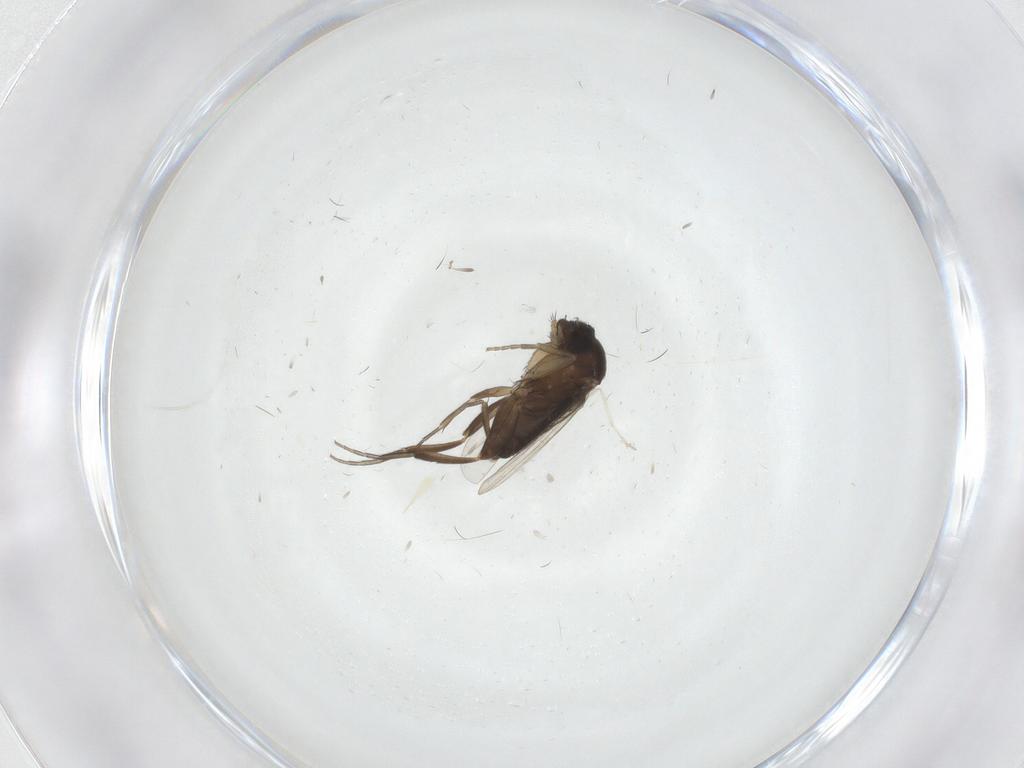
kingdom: Animalia
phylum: Arthropoda
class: Insecta
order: Diptera
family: Phoridae
